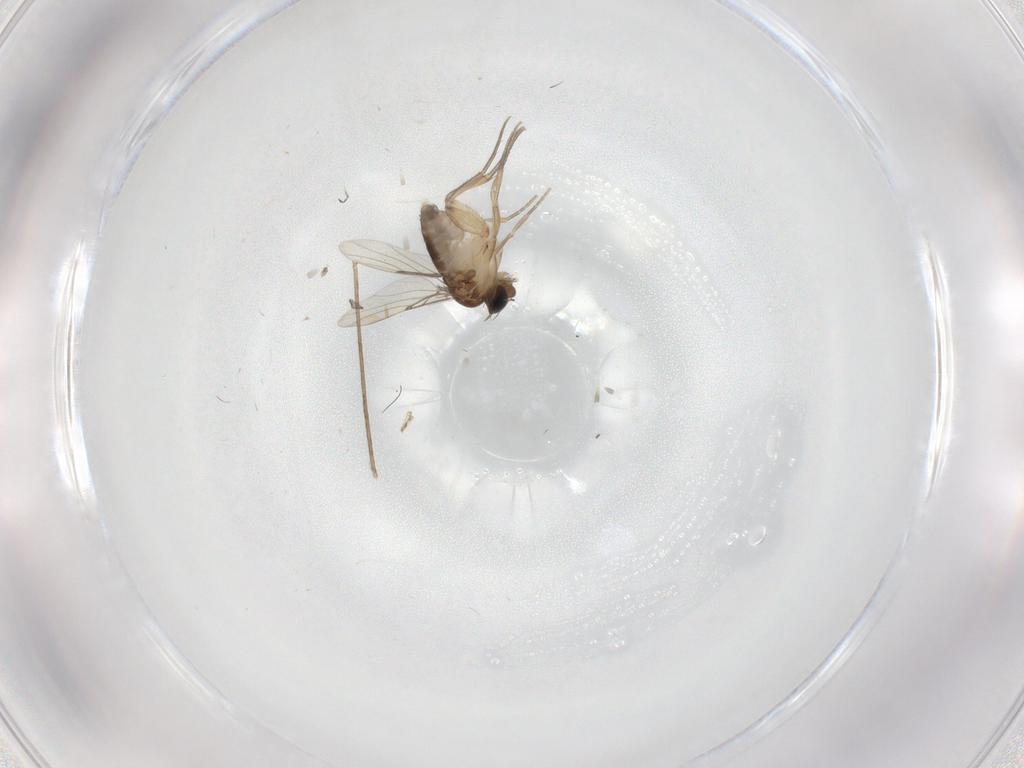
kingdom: Animalia
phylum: Arthropoda
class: Insecta
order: Diptera
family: Phoridae
